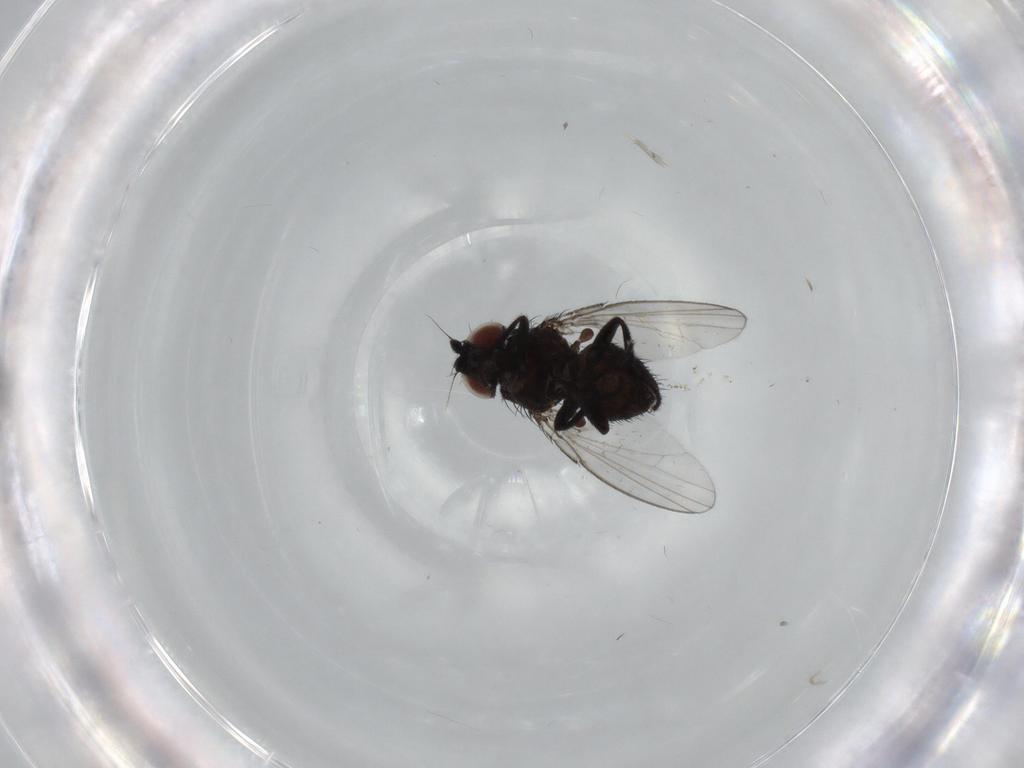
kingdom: Animalia
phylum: Arthropoda
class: Insecta
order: Diptera
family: Milichiidae
